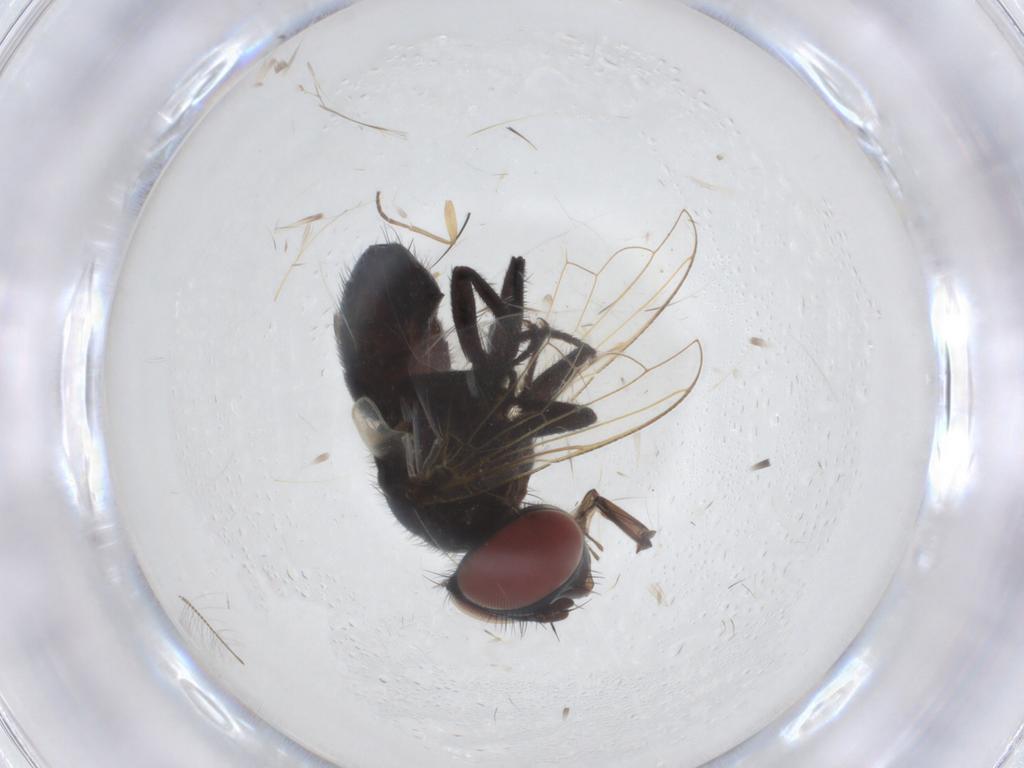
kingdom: Animalia
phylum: Arthropoda
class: Insecta
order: Diptera
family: Tachinidae
